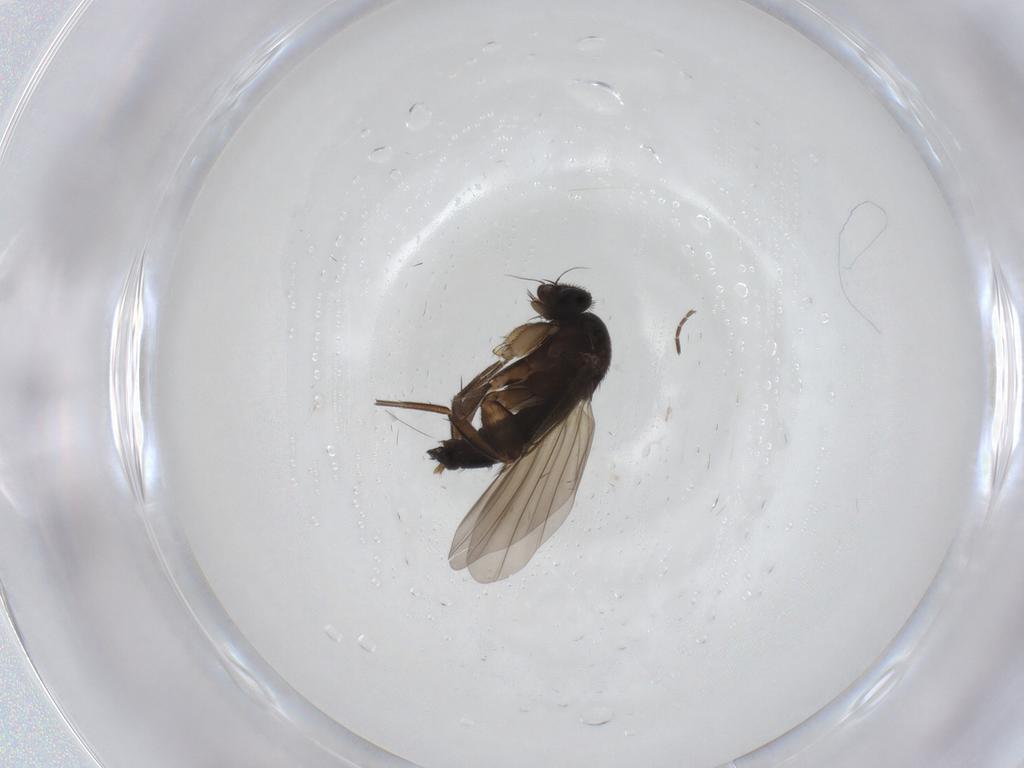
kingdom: Animalia
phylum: Arthropoda
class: Insecta
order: Diptera
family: Phoridae
